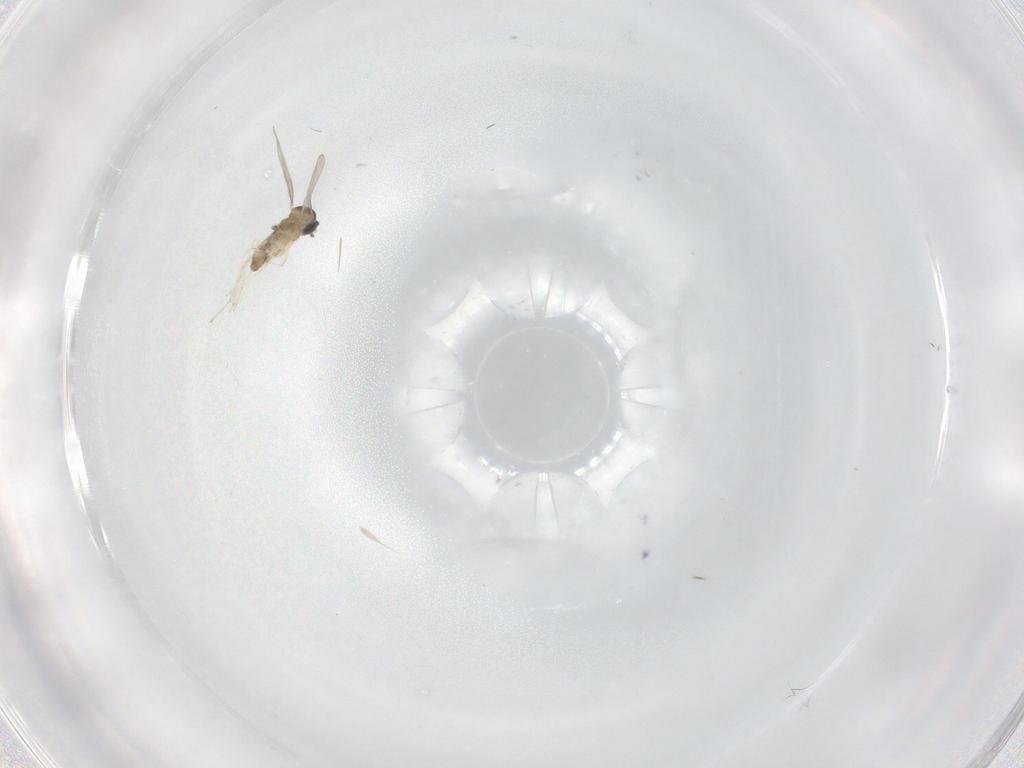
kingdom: Animalia
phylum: Arthropoda
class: Insecta
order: Diptera
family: Cecidomyiidae
